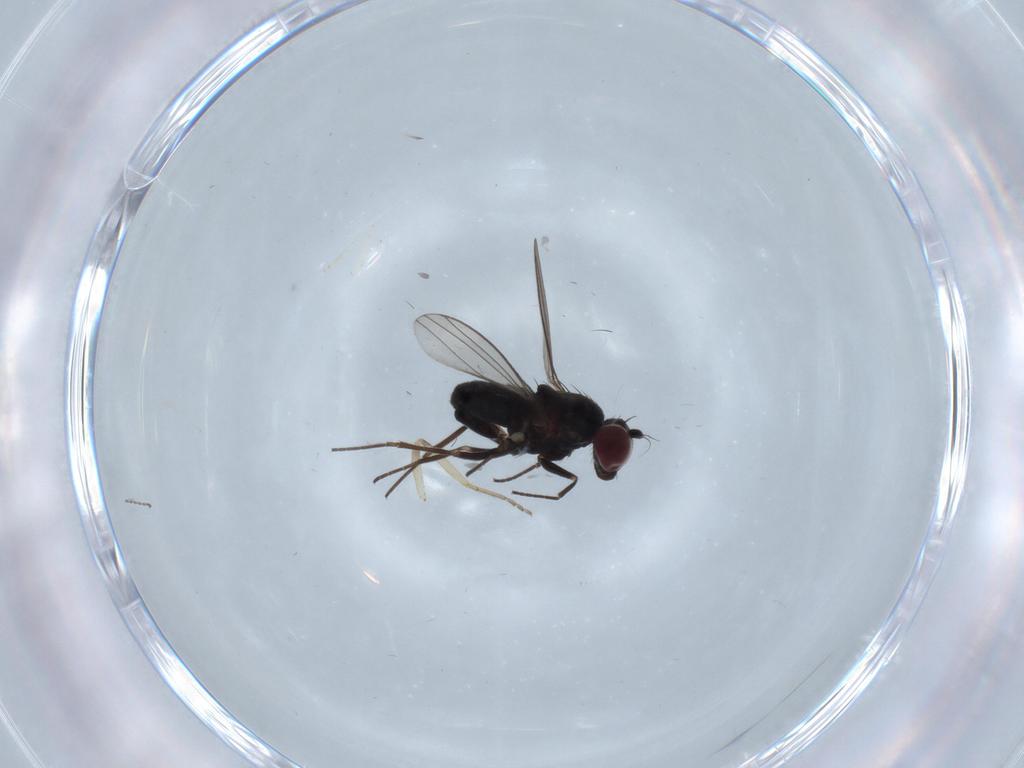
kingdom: Animalia
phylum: Arthropoda
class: Insecta
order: Diptera
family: Dolichopodidae
